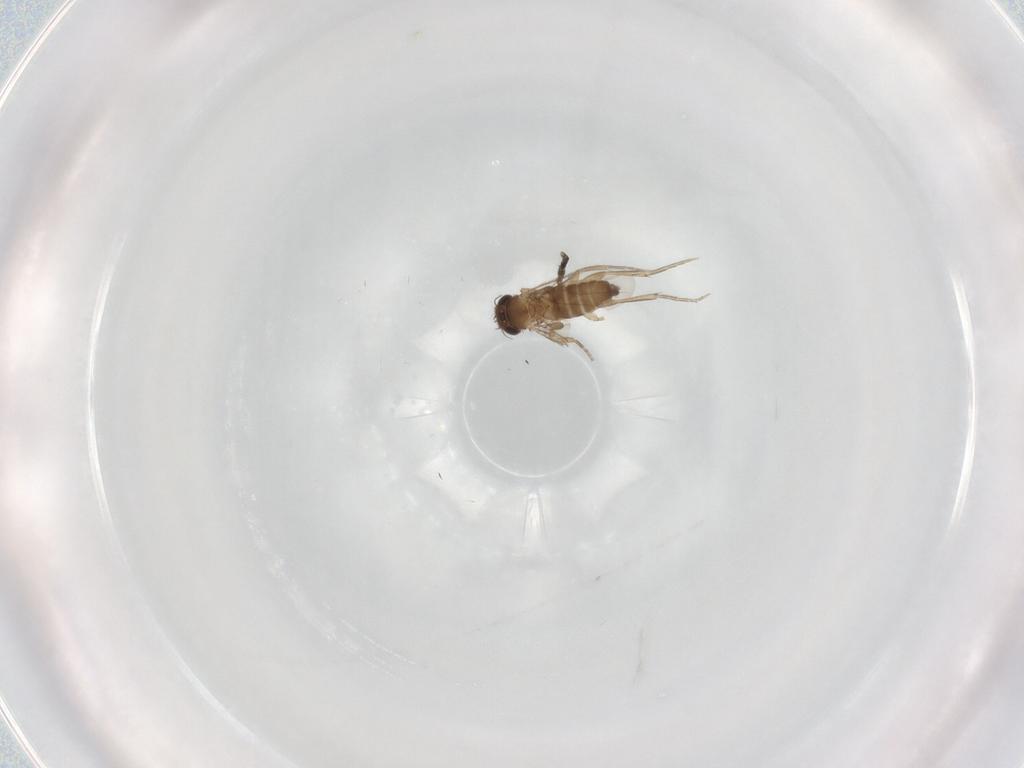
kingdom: Animalia
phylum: Arthropoda
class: Insecta
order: Diptera
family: Phoridae
